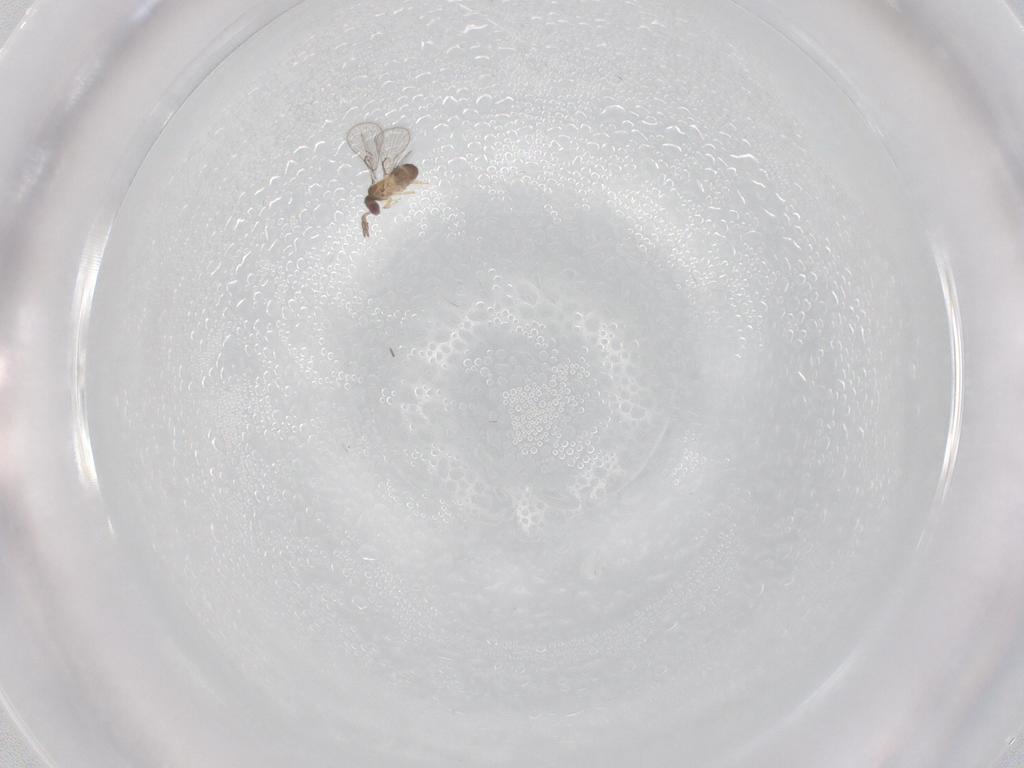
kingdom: Animalia
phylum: Arthropoda
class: Insecta
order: Hymenoptera
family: Trichogrammatidae
